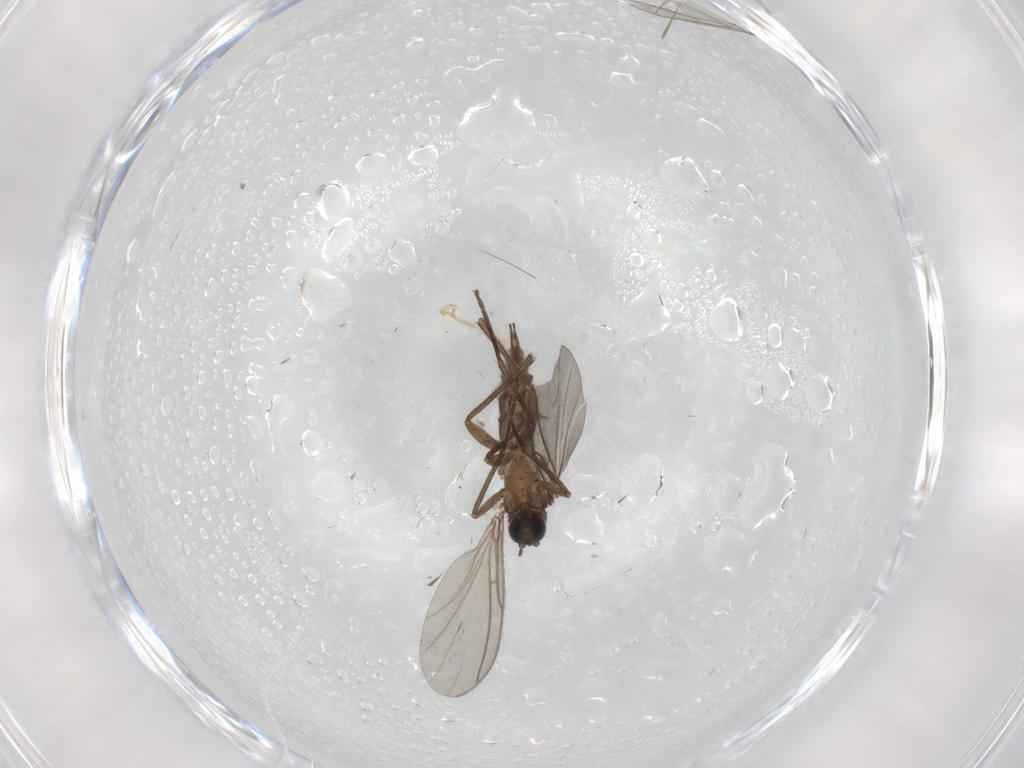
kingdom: Animalia
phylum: Arthropoda
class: Insecta
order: Diptera
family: Sciaridae
